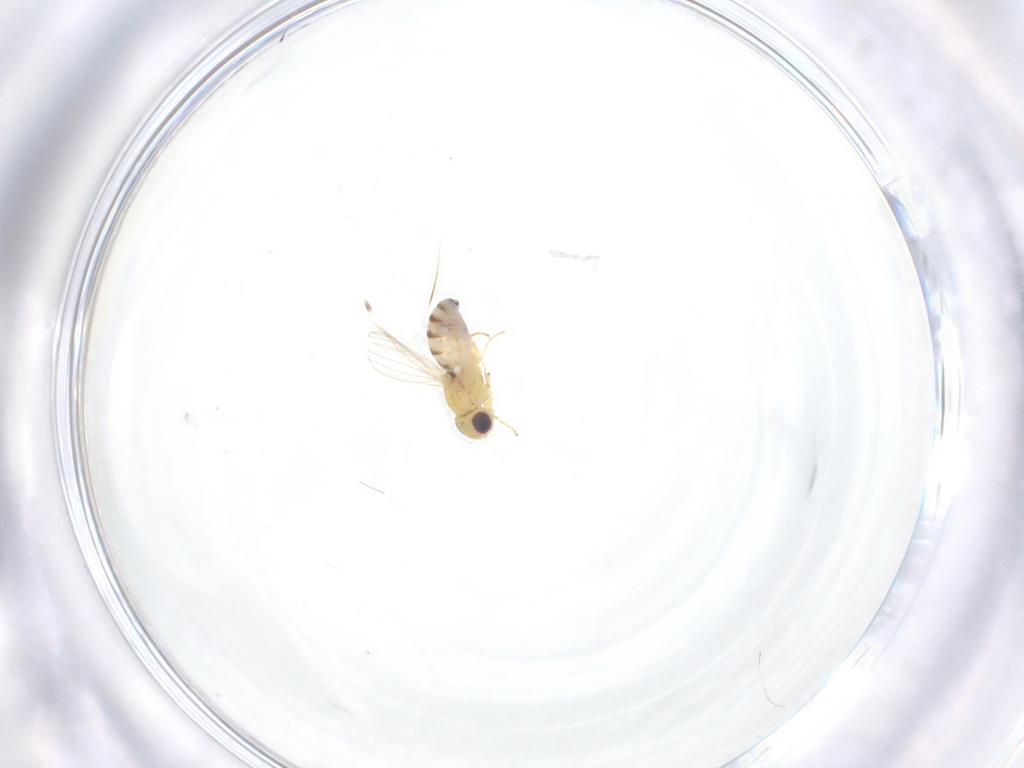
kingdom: Animalia
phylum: Arthropoda
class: Insecta
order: Diptera
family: Chloropidae
